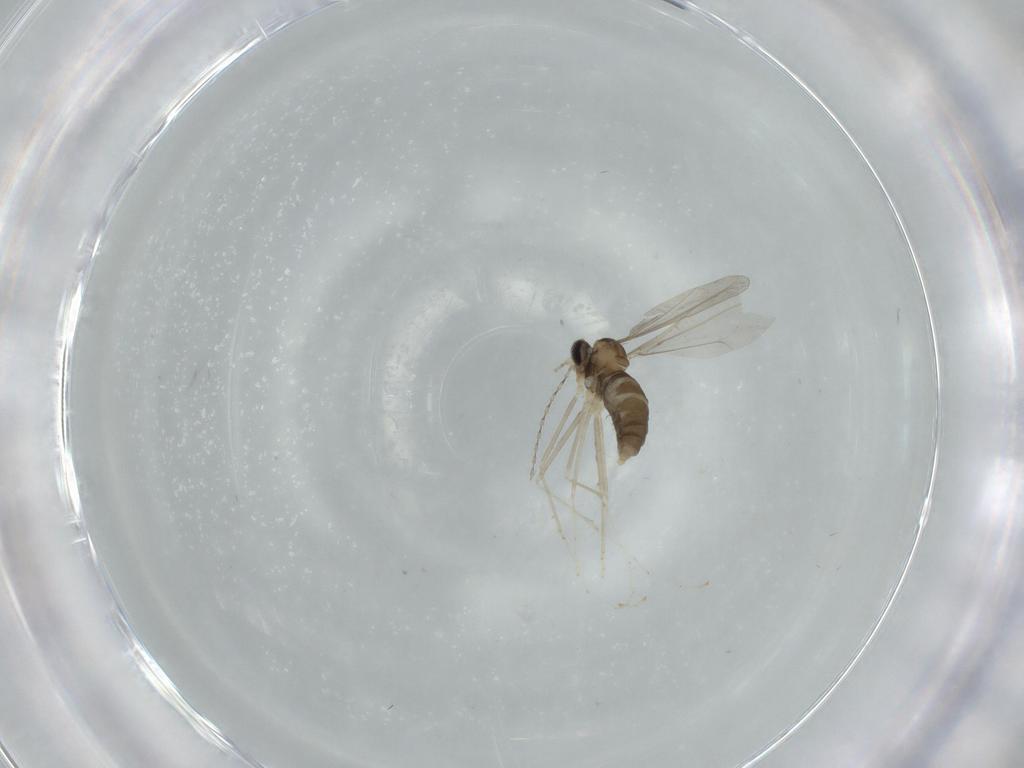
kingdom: Animalia
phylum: Arthropoda
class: Insecta
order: Diptera
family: Cecidomyiidae
